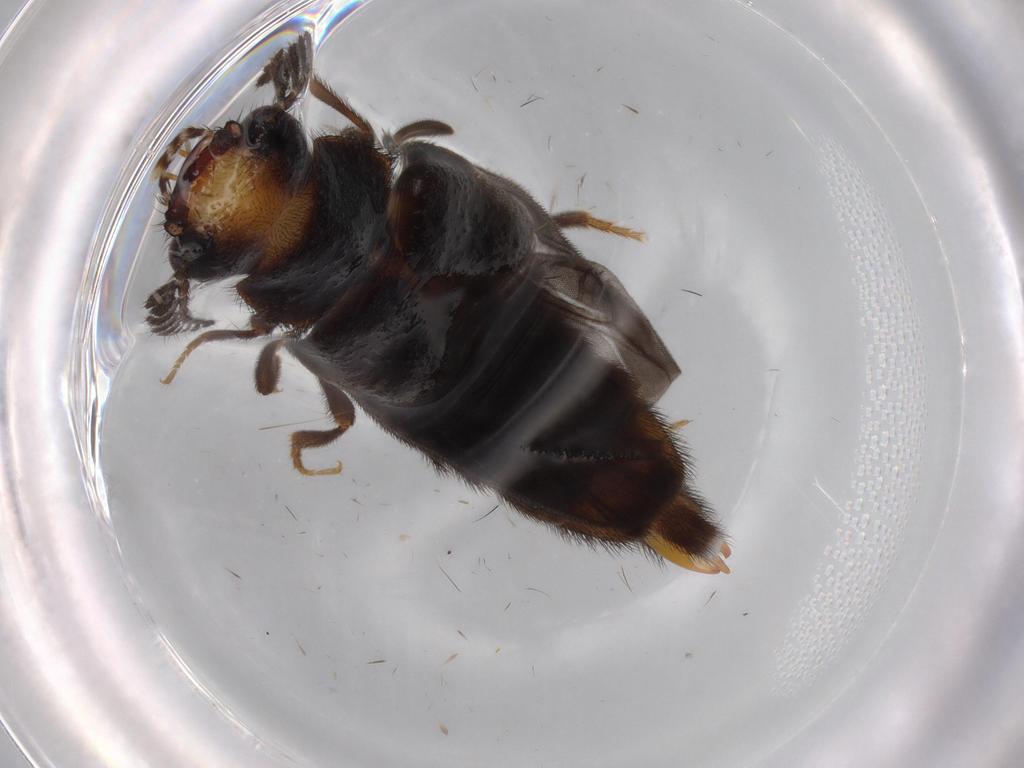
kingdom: Animalia
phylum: Arthropoda
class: Insecta
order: Coleoptera
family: Phengodidae
